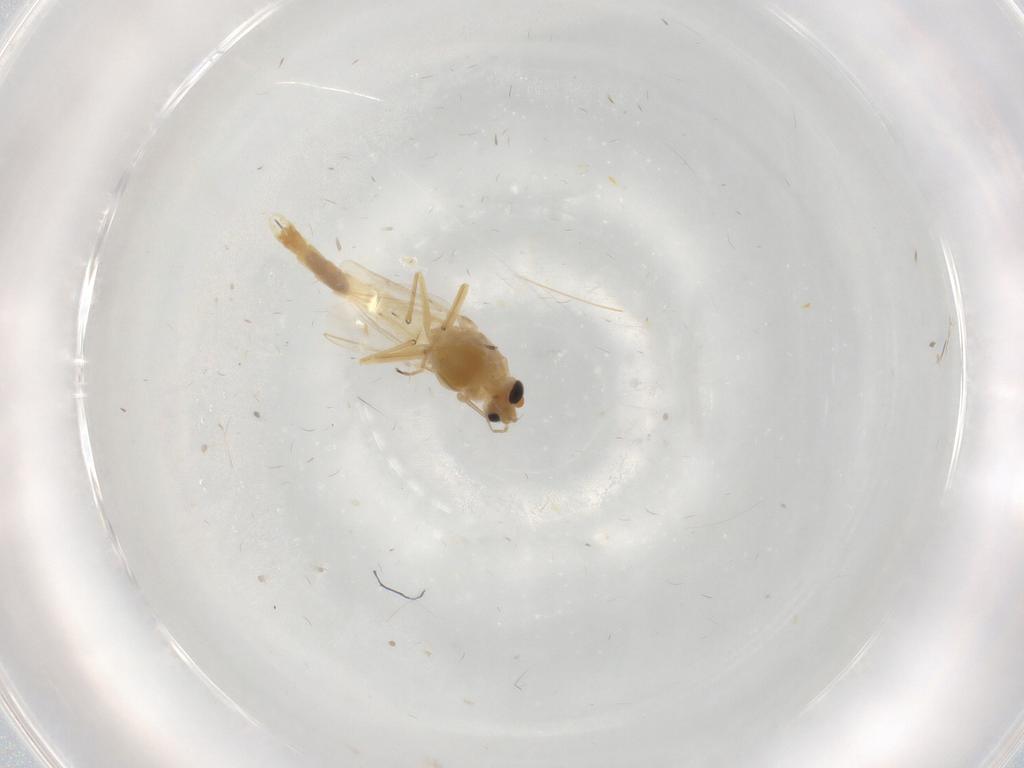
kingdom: Animalia
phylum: Arthropoda
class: Insecta
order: Diptera
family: Chironomidae
